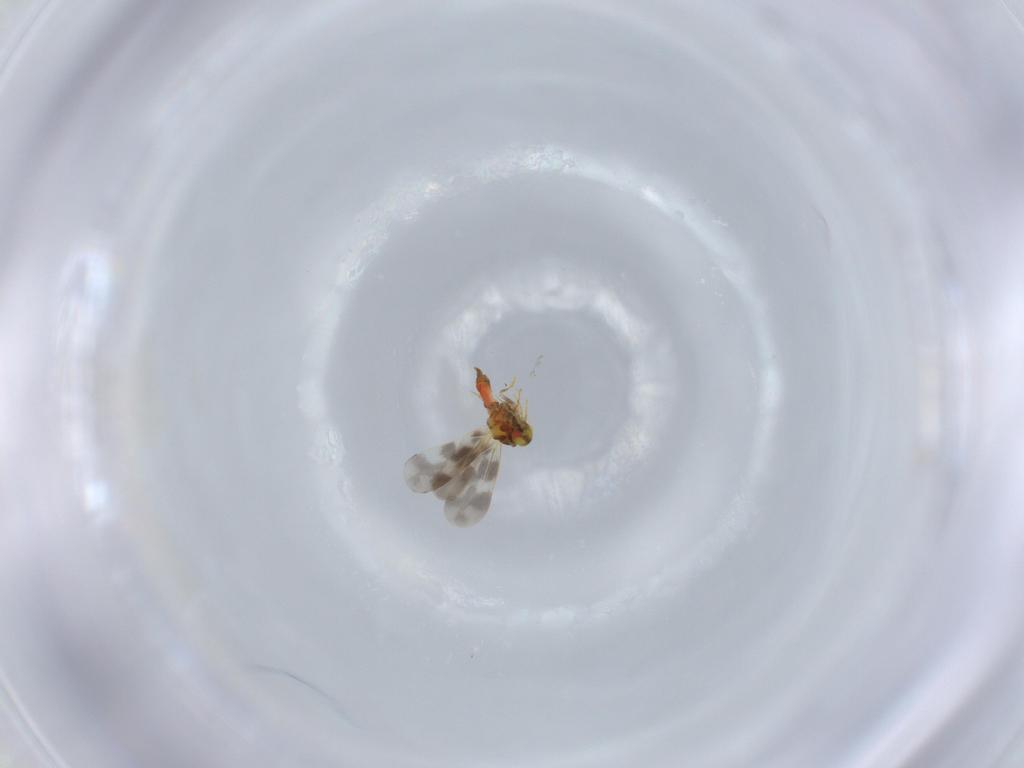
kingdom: Animalia
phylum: Arthropoda
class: Insecta
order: Hemiptera
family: Aleyrodidae
